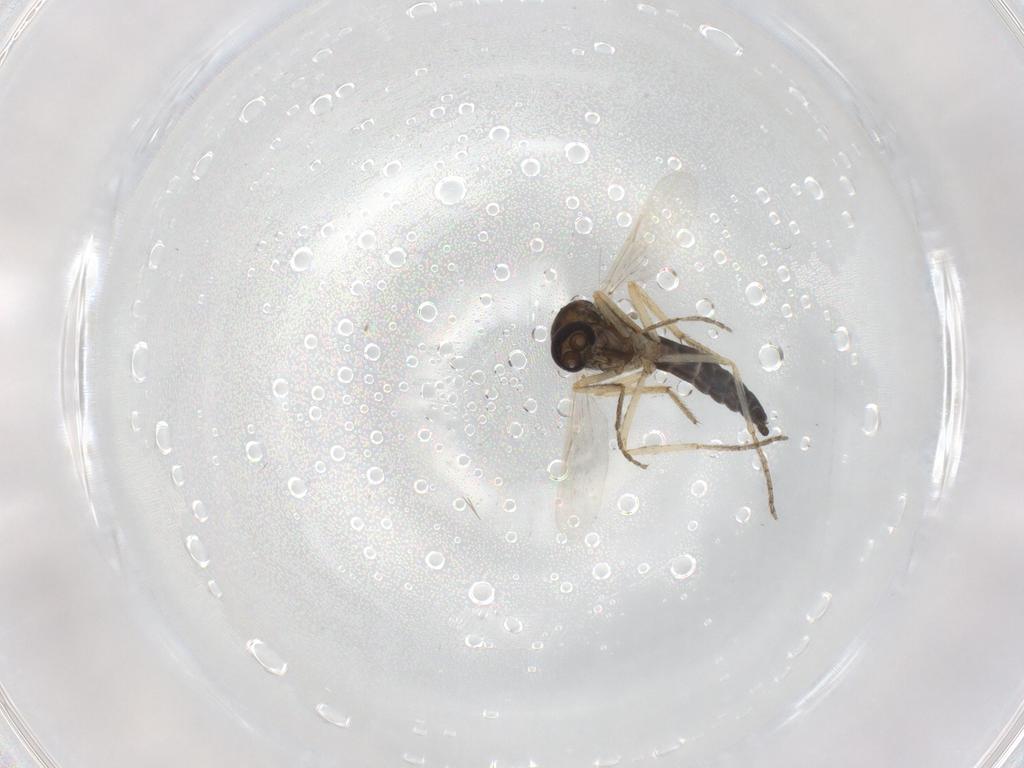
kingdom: Animalia
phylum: Arthropoda
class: Insecta
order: Diptera
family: Ceratopogonidae
